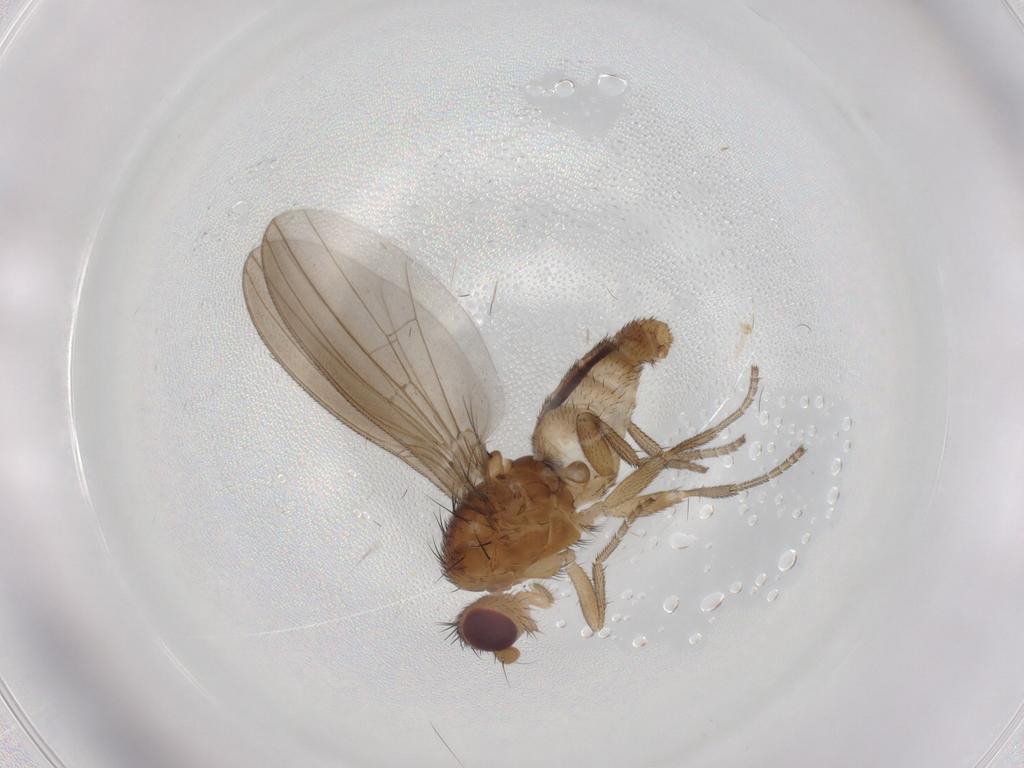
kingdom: Animalia
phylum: Arthropoda
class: Insecta
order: Diptera
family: Natalimyzidae
